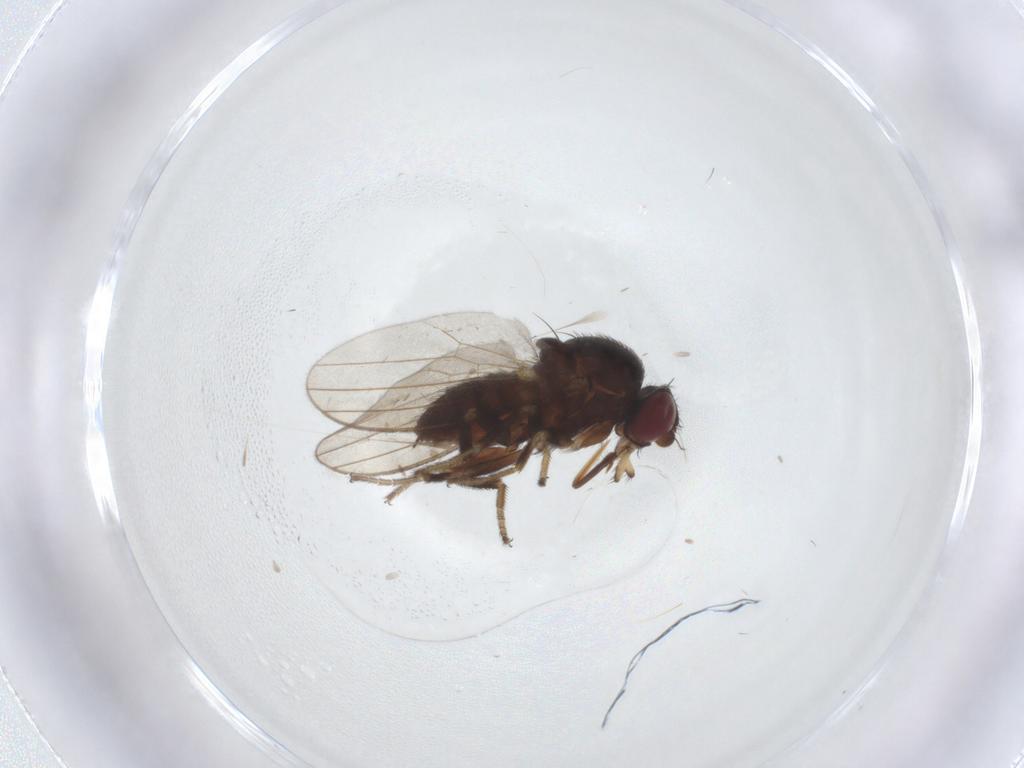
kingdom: Animalia
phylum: Arthropoda
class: Insecta
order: Diptera
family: Milichiidae
